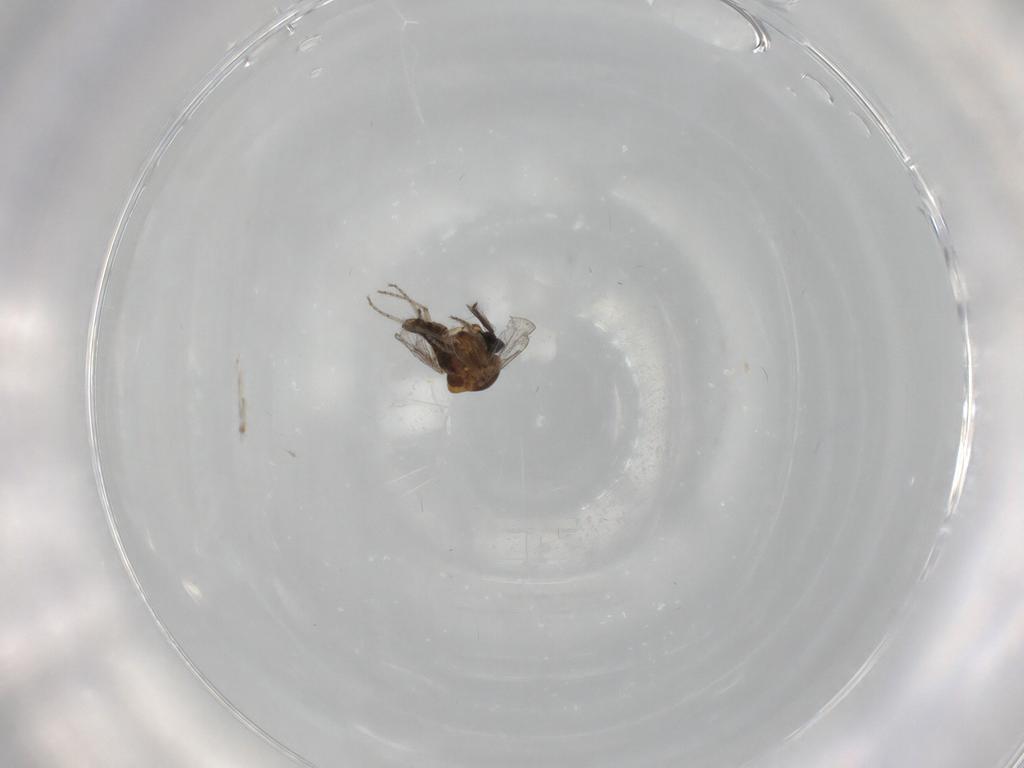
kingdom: Animalia
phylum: Arthropoda
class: Insecta
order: Diptera
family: Ceratopogonidae
